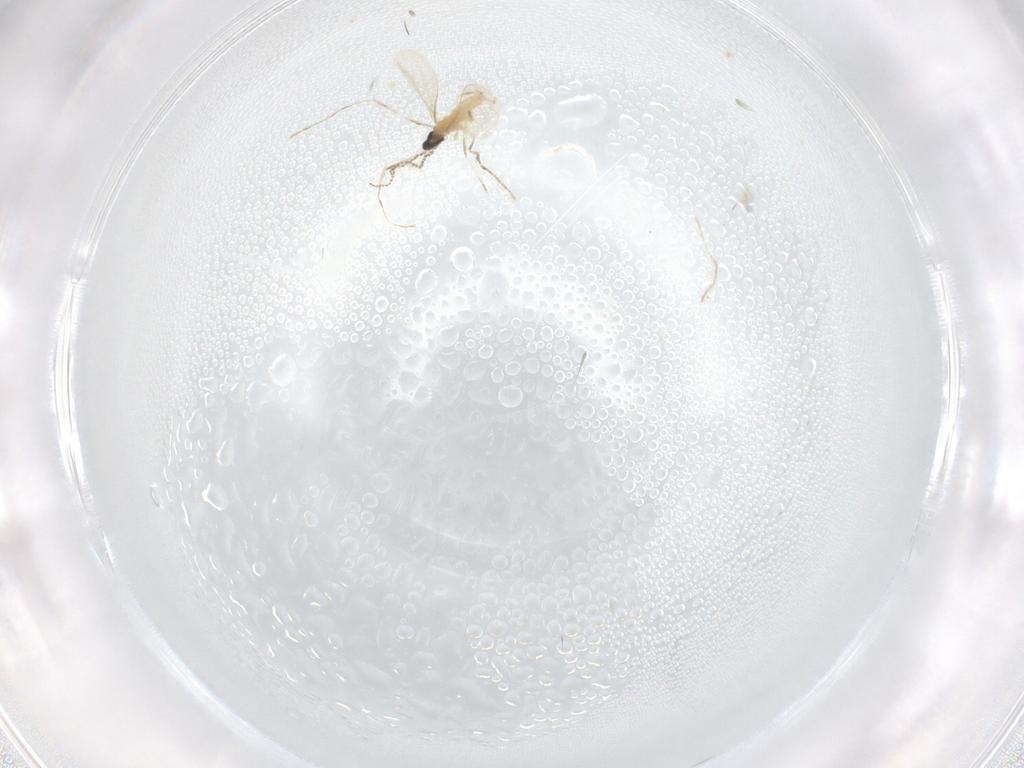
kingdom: Animalia
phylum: Arthropoda
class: Insecta
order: Diptera
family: Cecidomyiidae
